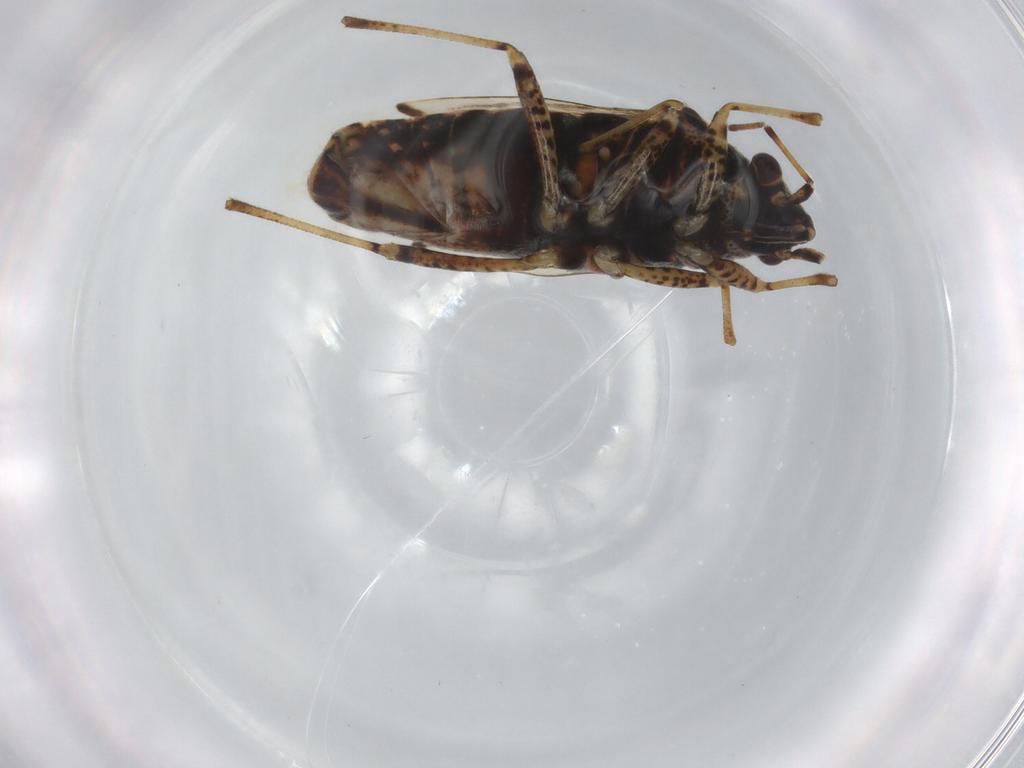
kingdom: Animalia
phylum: Arthropoda
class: Insecta
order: Hemiptera
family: Lygaeidae
